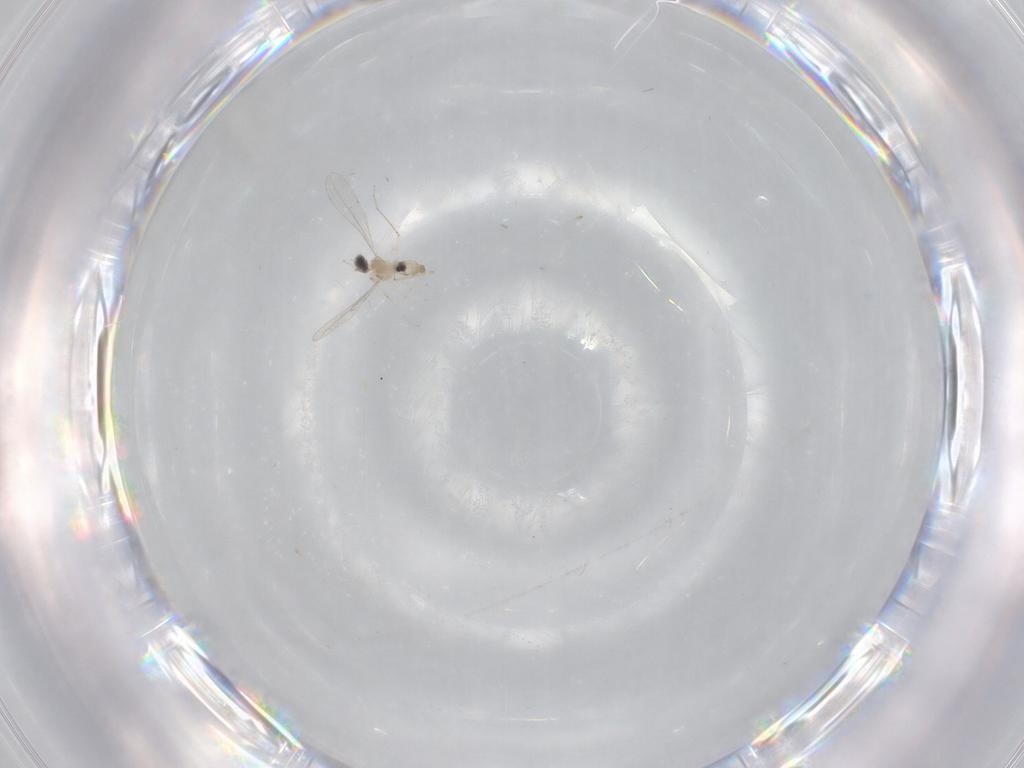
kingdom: Animalia
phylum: Arthropoda
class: Insecta
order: Diptera
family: Cecidomyiidae
